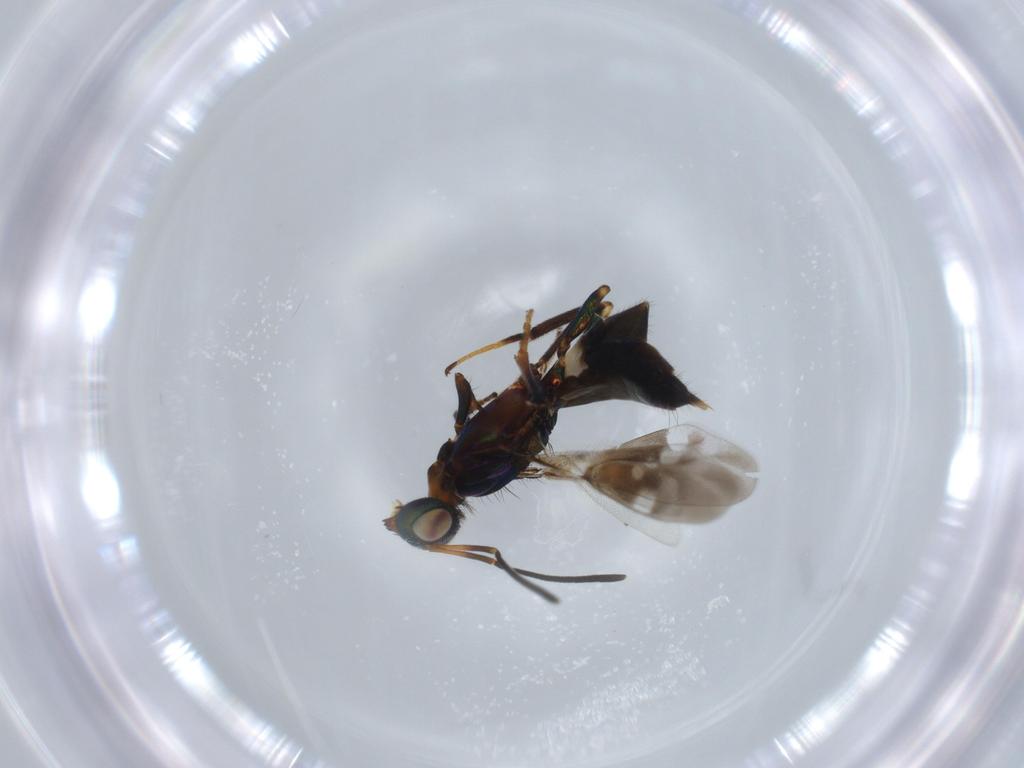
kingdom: Animalia
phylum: Arthropoda
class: Insecta
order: Hymenoptera
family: Eupelmidae
